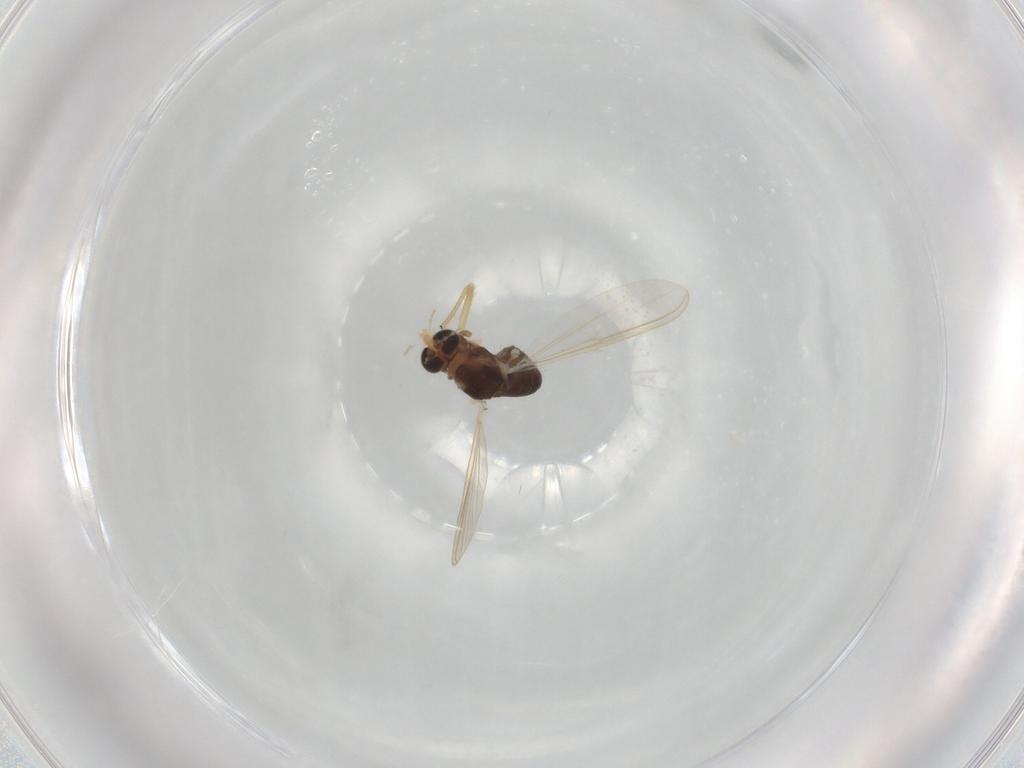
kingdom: Animalia
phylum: Arthropoda
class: Insecta
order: Diptera
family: Chironomidae
